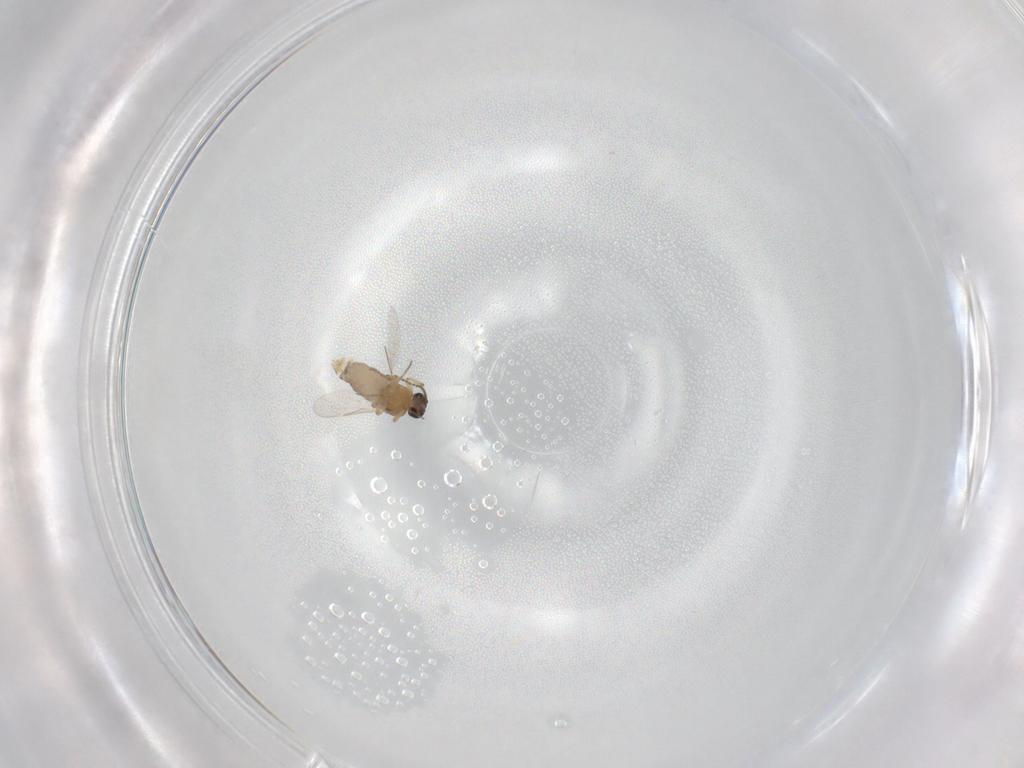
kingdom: Animalia
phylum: Arthropoda
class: Insecta
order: Diptera
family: Ceratopogonidae
